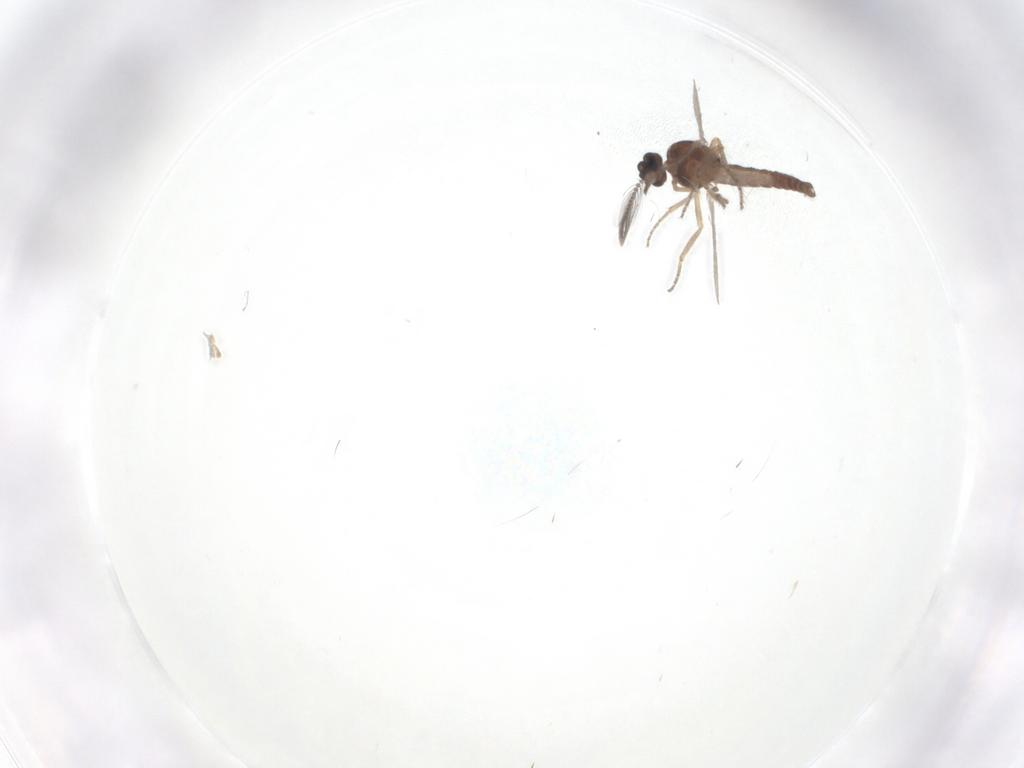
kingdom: Animalia
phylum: Arthropoda
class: Insecta
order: Diptera
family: Ceratopogonidae
